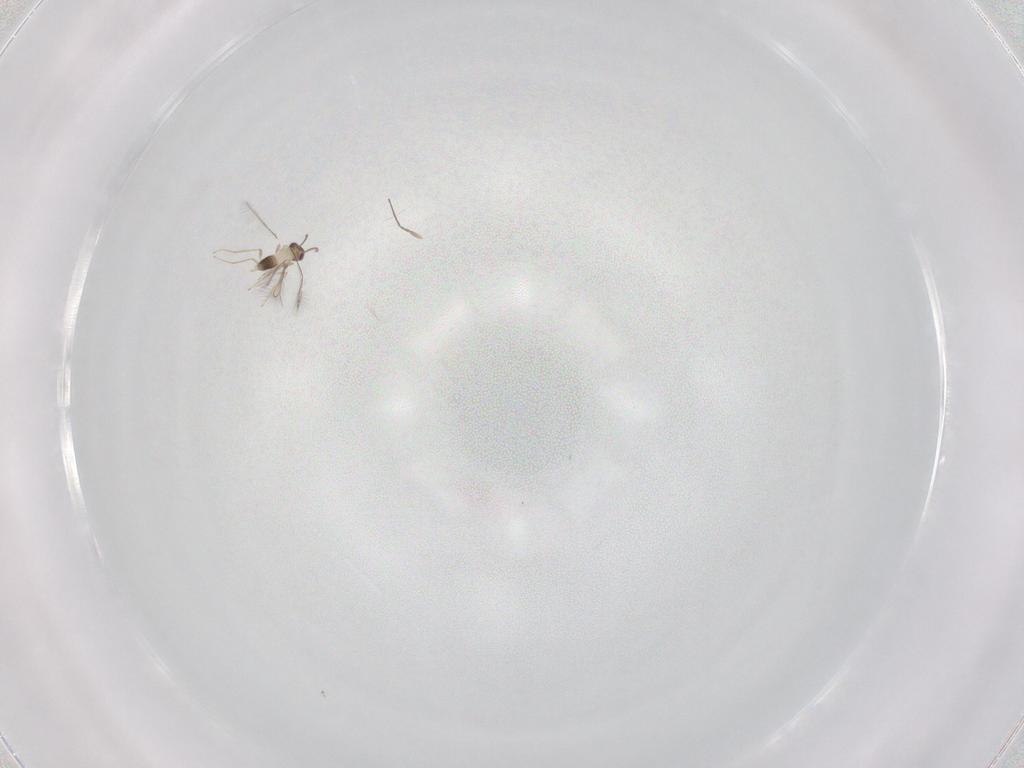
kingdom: Animalia
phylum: Arthropoda
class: Insecta
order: Hymenoptera
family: Mymaridae
